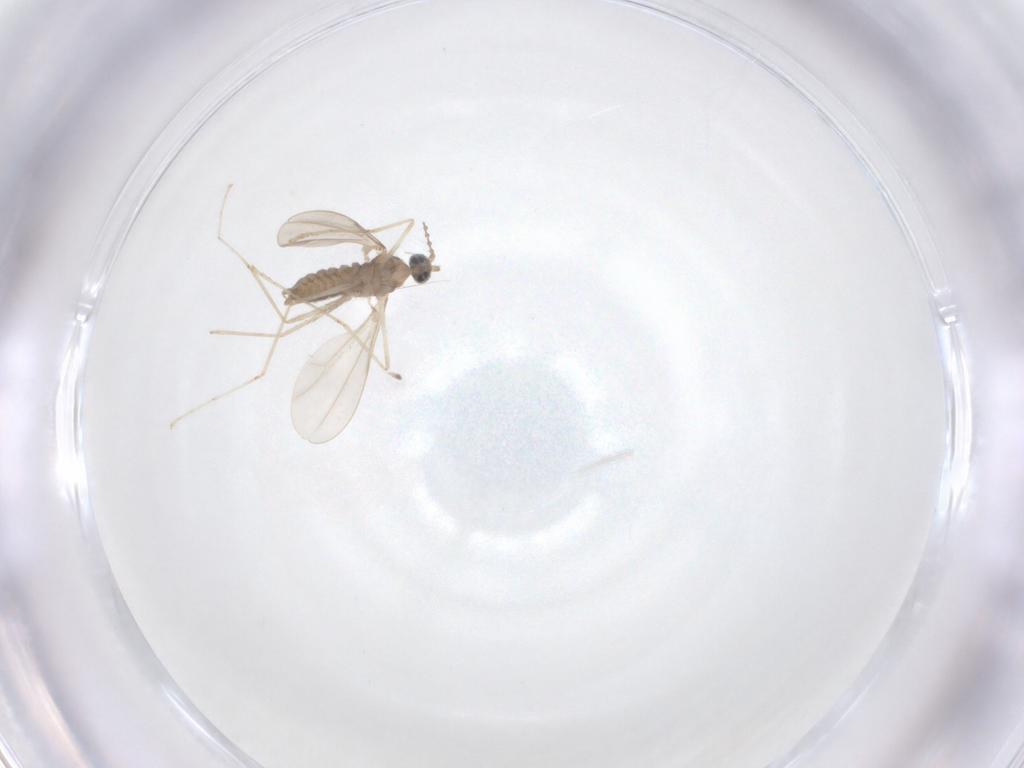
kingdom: Animalia
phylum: Arthropoda
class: Insecta
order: Diptera
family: Cecidomyiidae
